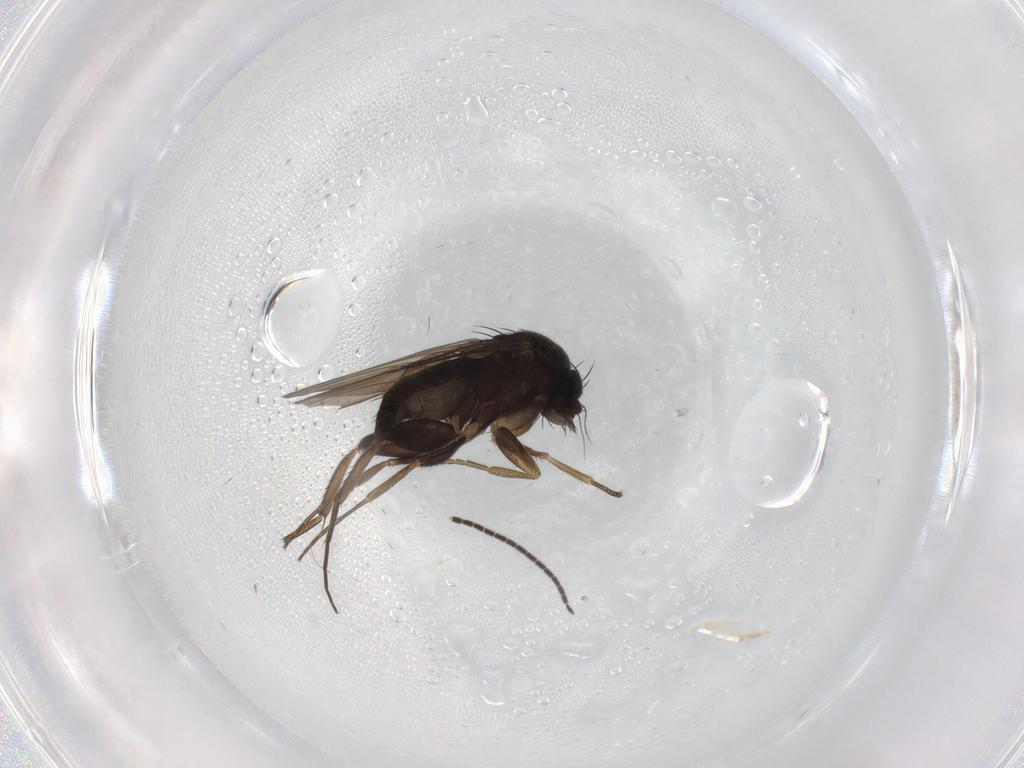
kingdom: Animalia
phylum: Arthropoda
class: Insecta
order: Diptera
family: Phoridae
